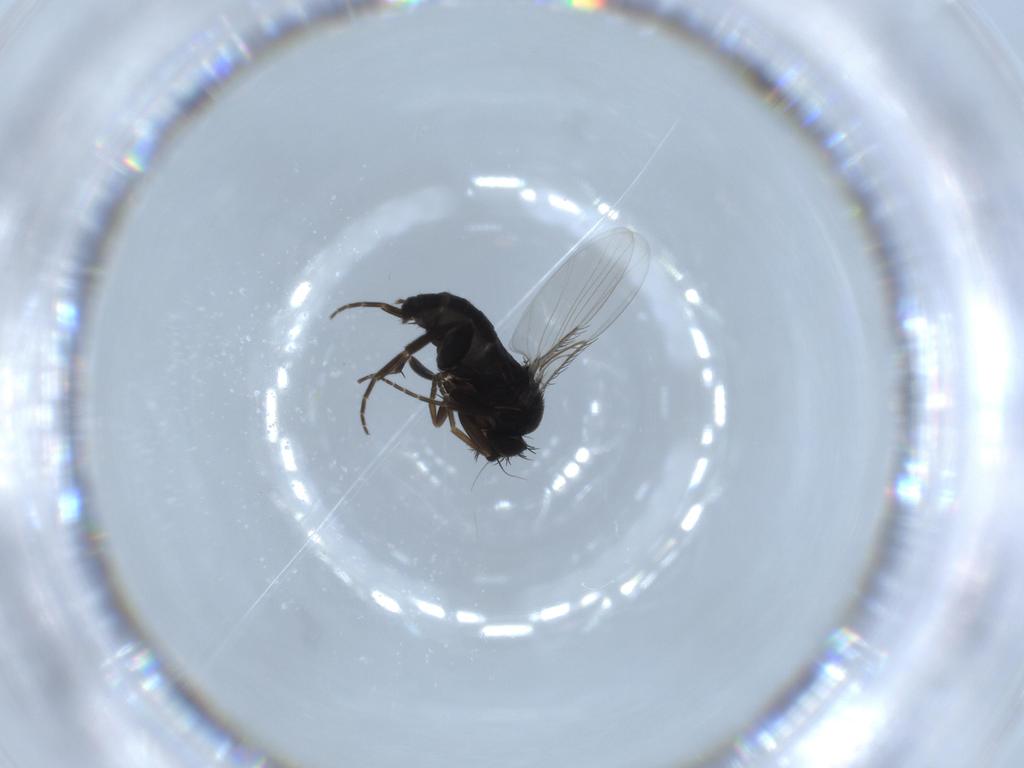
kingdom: Animalia
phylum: Arthropoda
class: Insecta
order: Diptera
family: Phoridae
